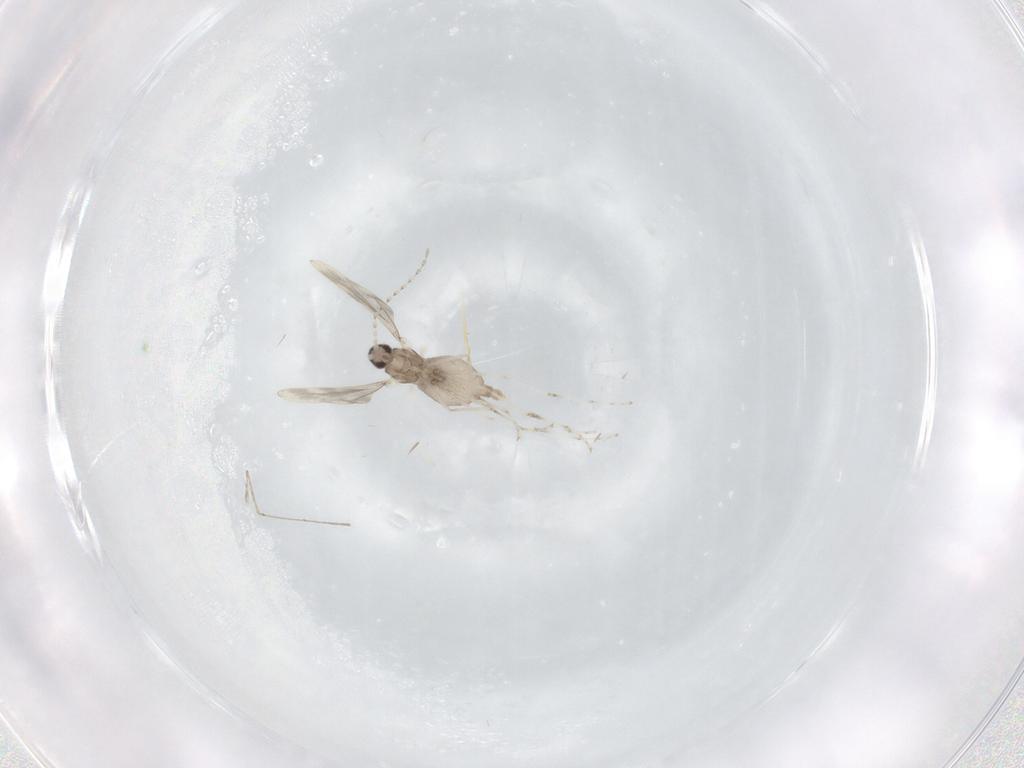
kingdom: Animalia
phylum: Arthropoda
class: Insecta
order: Diptera
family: Cecidomyiidae
